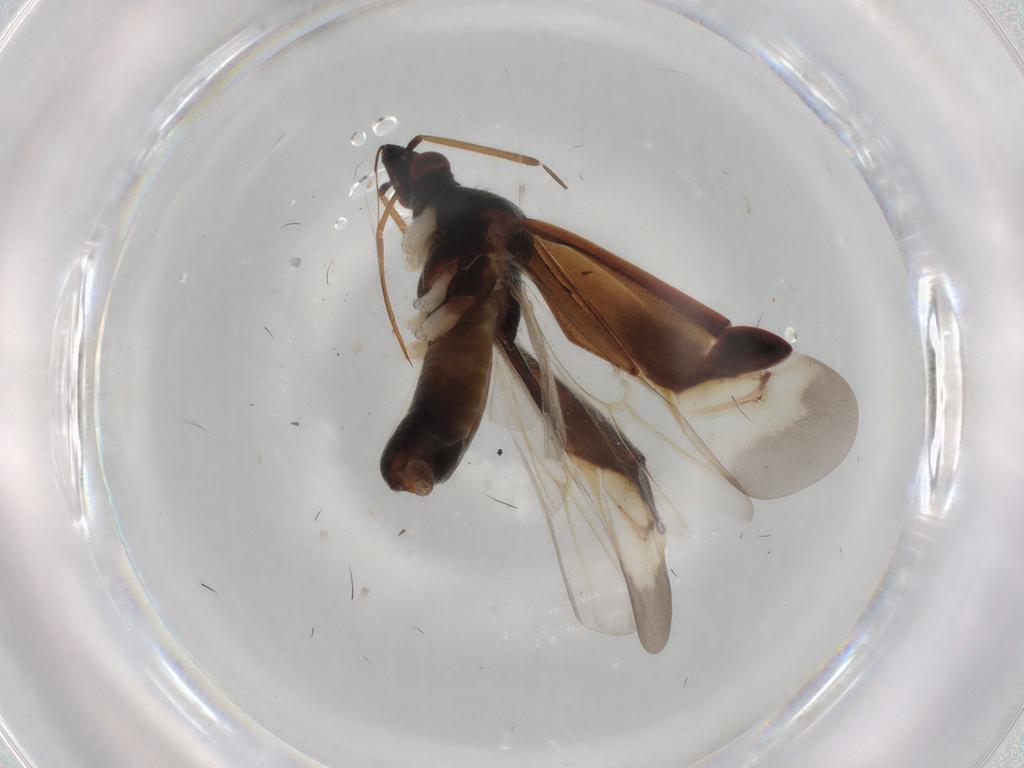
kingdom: Animalia
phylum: Arthropoda
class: Insecta
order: Hemiptera
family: Miridae
